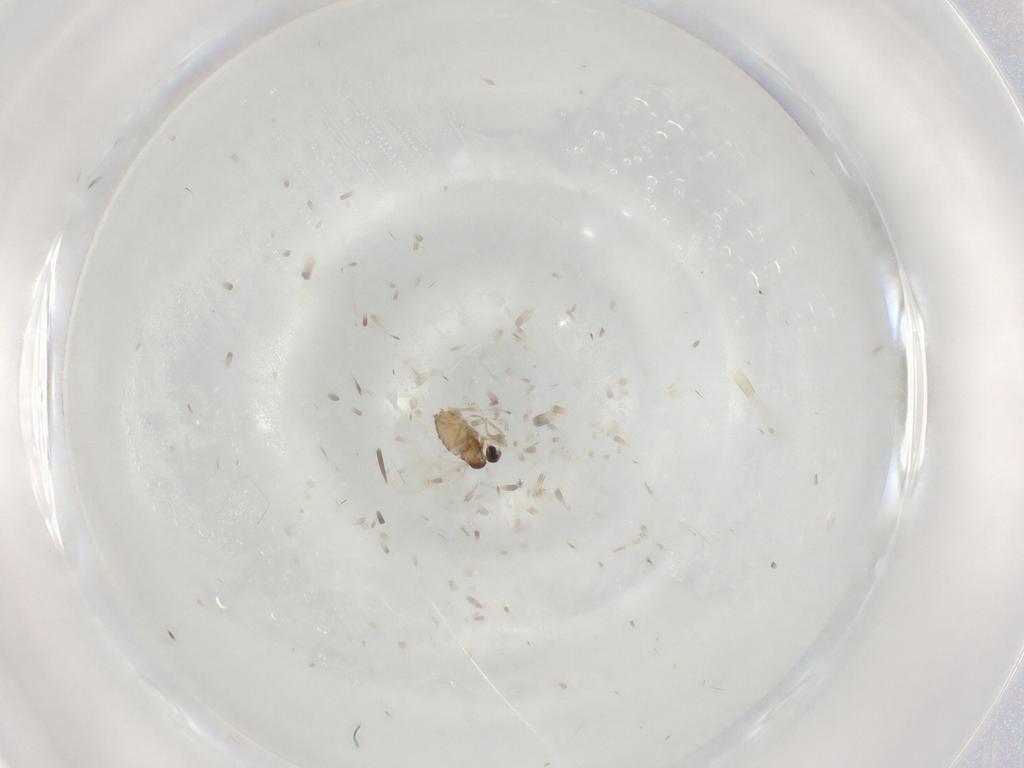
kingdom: Animalia
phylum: Arthropoda
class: Insecta
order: Diptera
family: Cecidomyiidae
